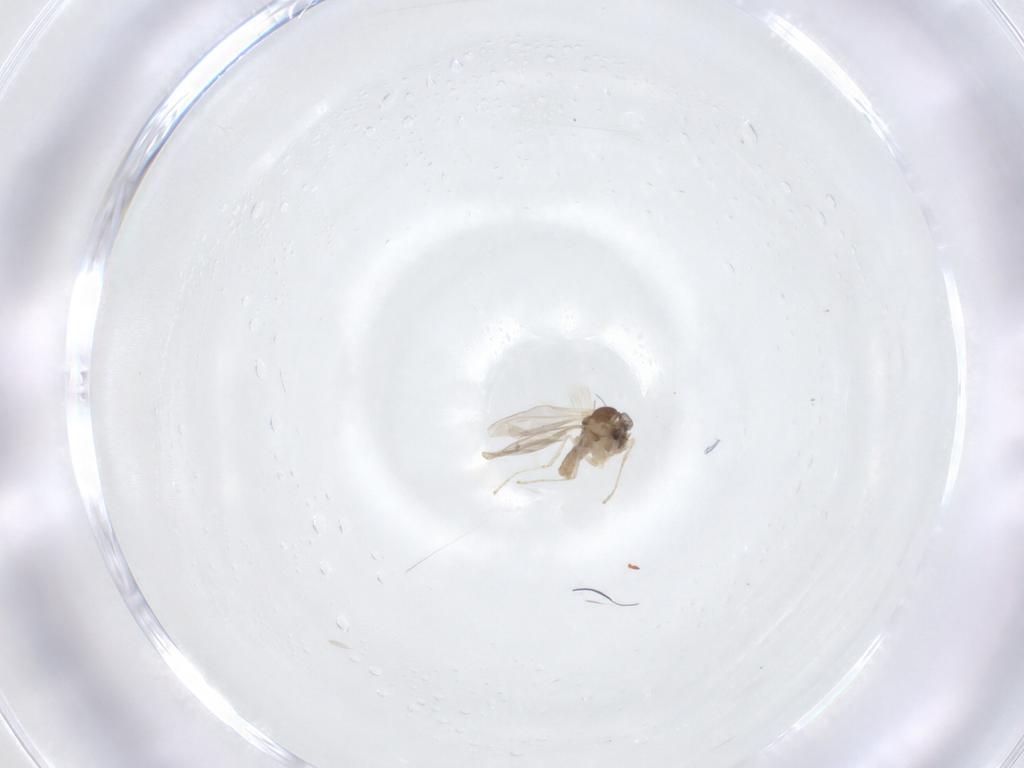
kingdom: Animalia
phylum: Arthropoda
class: Insecta
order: Diptera
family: Cecidomyiidae
